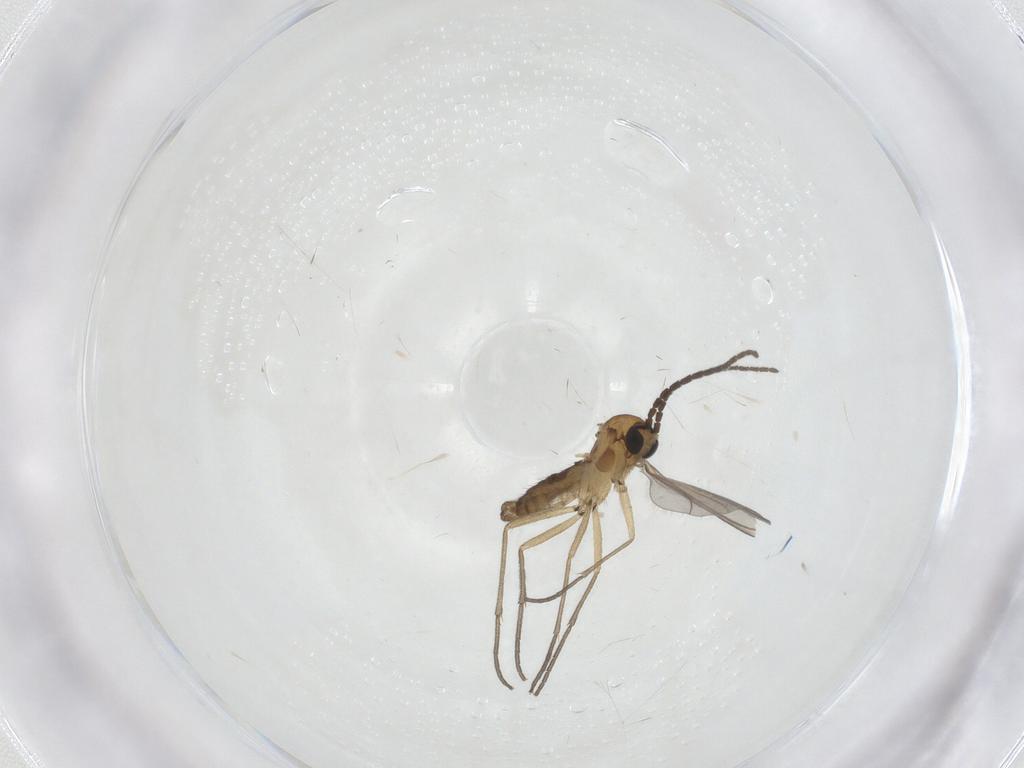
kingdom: Animalia
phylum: Arthropoda
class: Insecta
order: Diptera
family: Sciaridae
